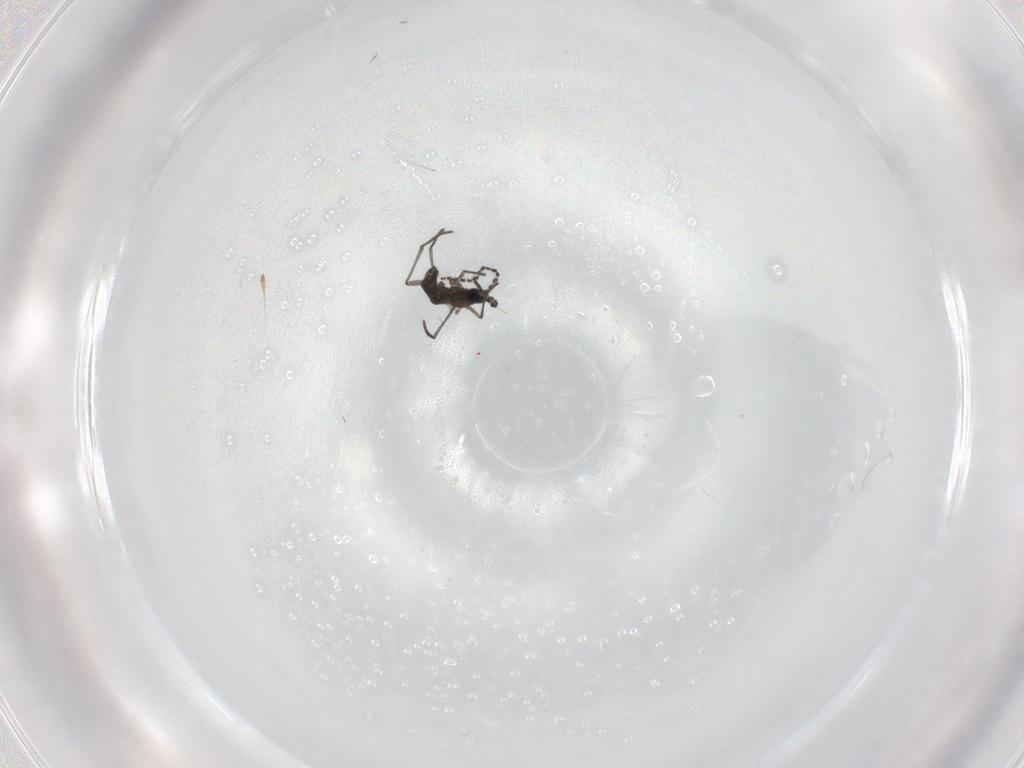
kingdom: Animalia
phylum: Arthropoda
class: Insecta
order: Diptera
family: Sciaridae
